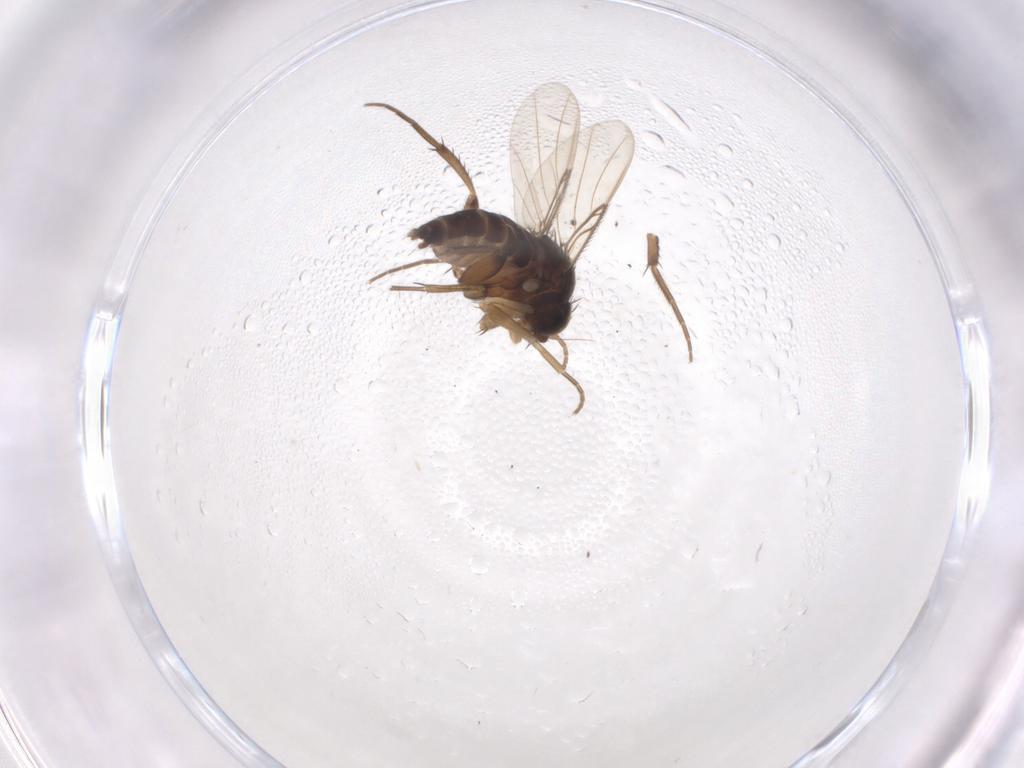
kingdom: Animalia
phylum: Arthropoda
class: Insecta
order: Diptera
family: Phoridae
